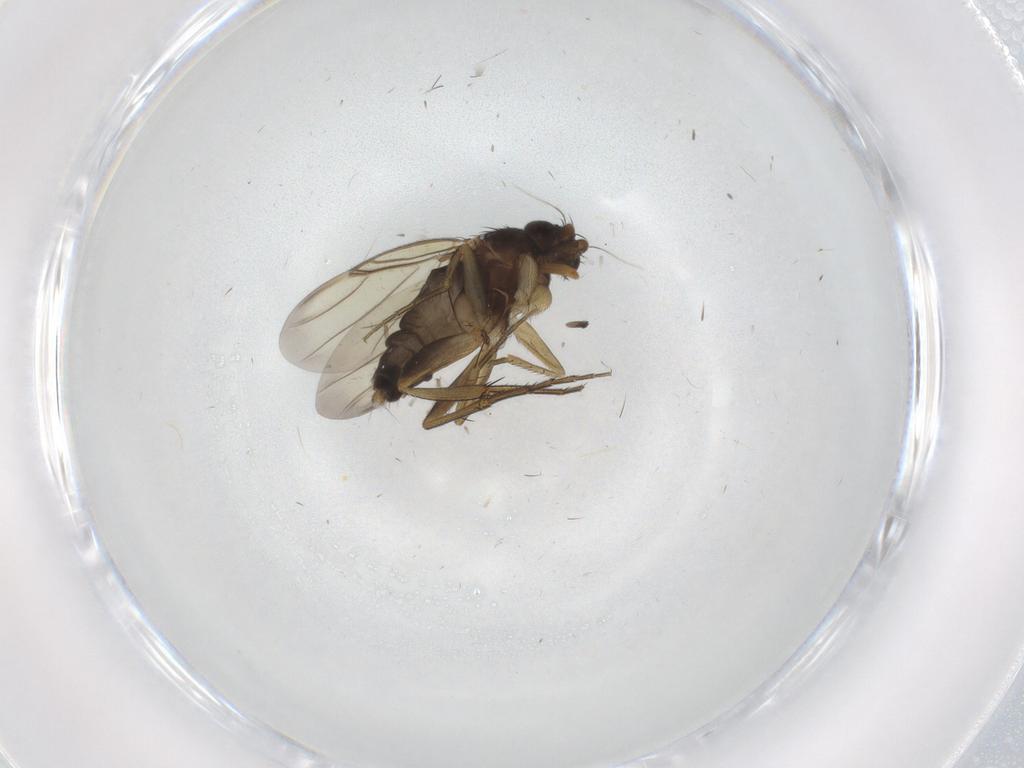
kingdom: Animalia
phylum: Arthropoda
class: Insecta
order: Diptera
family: Phoridae
